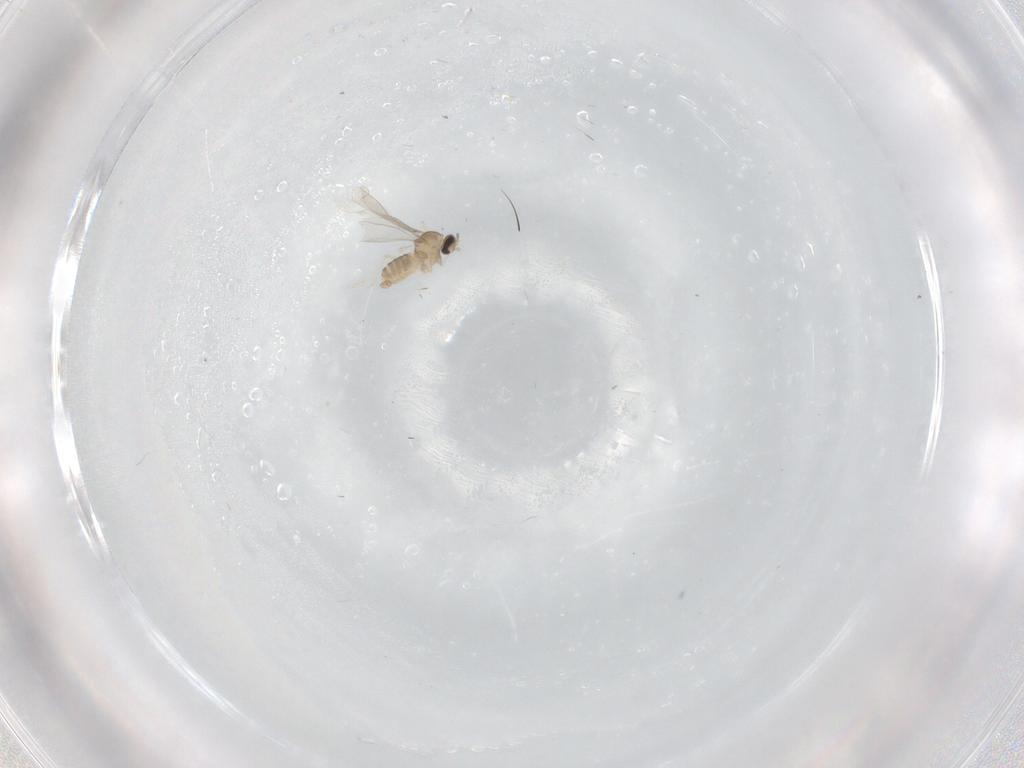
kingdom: Animalia
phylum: Arthropoda
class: Insecta
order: Diptera
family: Cecidomyiidae
